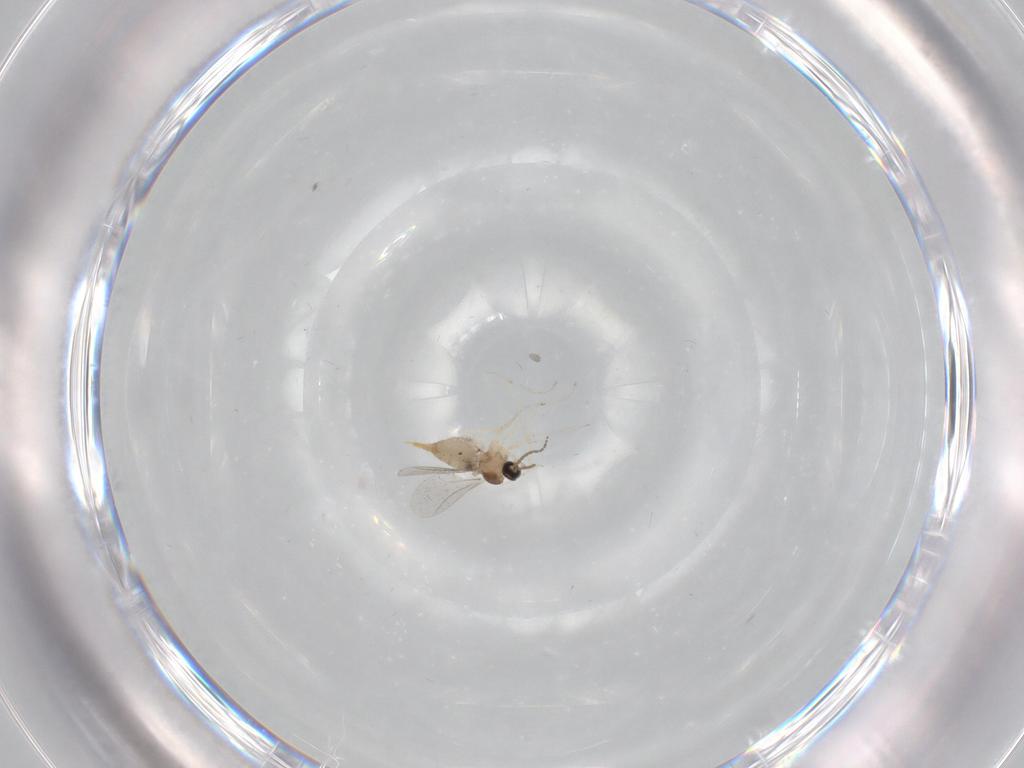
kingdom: Animalia
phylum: Arthropoda
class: Insecta
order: Diptera
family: Cecidomyiidae
